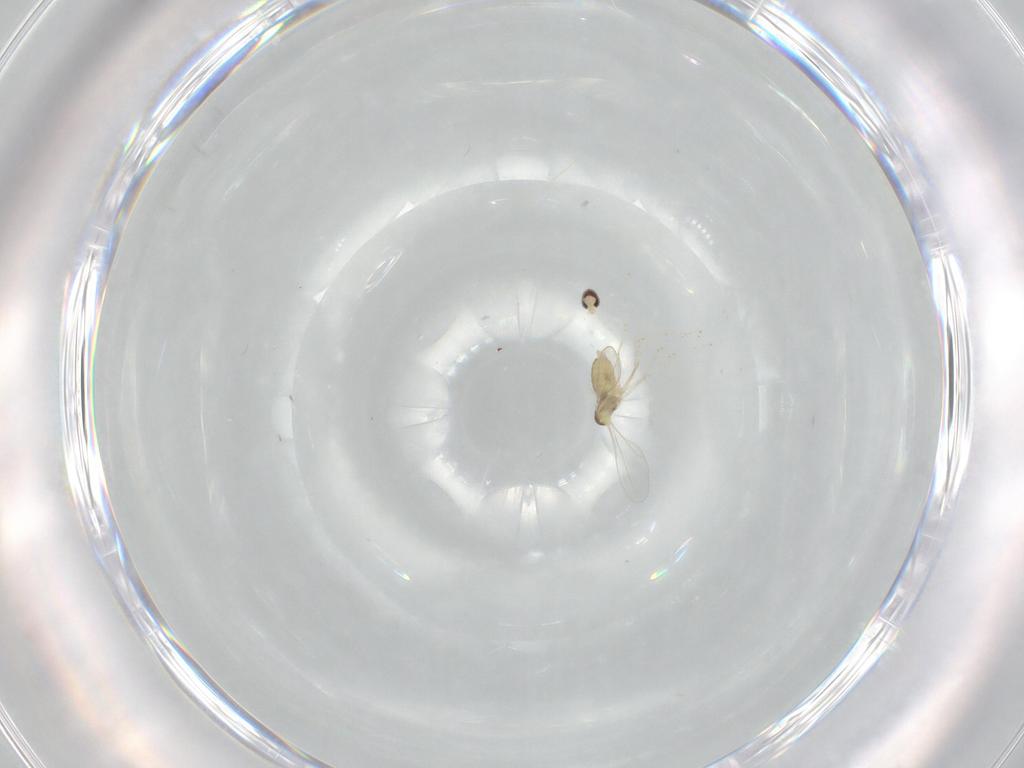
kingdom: Animalia
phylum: Arthropoda
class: Insecta
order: Diptera
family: Cecidomyiidae
